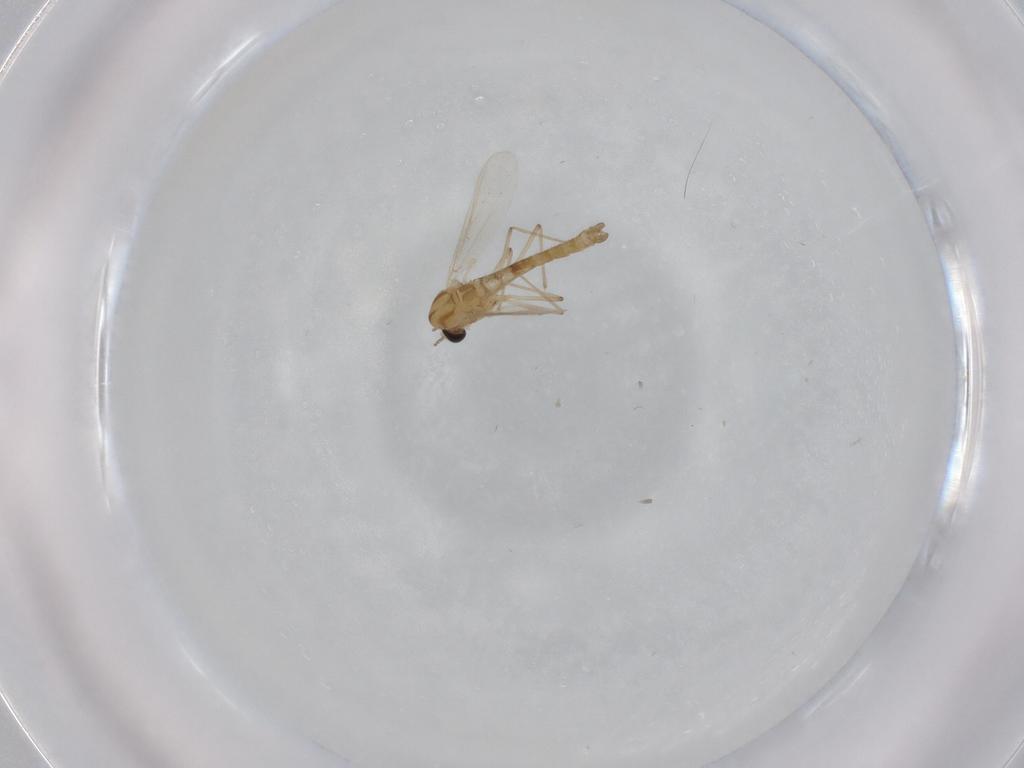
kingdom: Animalia
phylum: Arthropoda
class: Insecta
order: Diptera
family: Chironomidae
